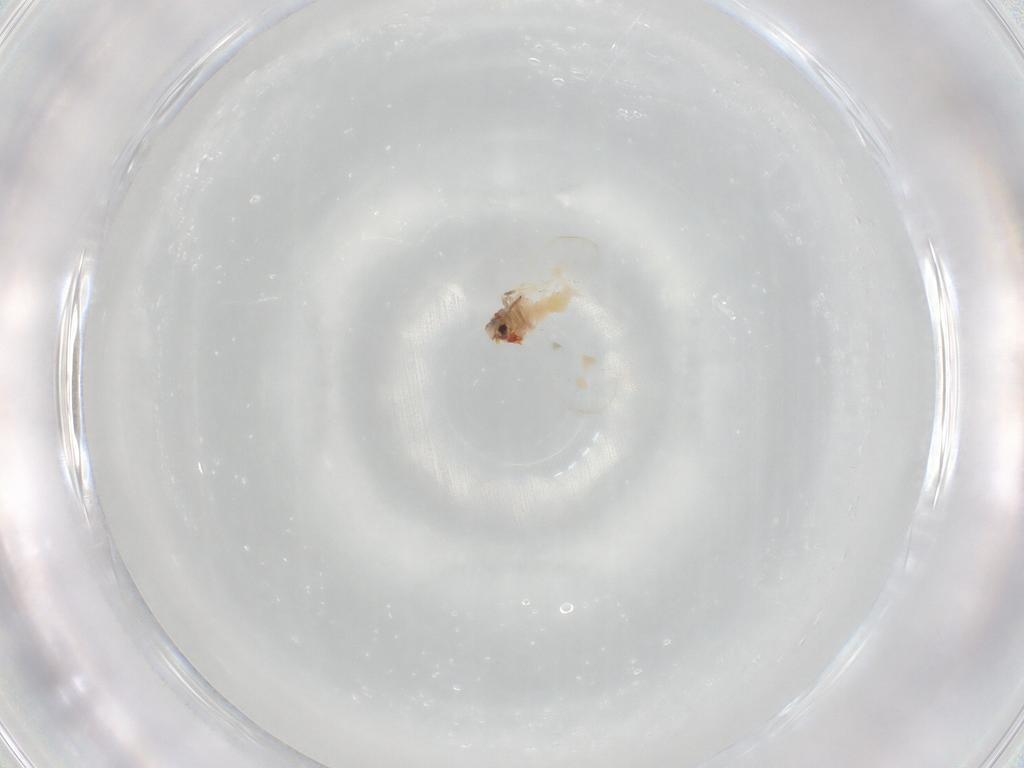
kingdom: Animalia
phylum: Arthropoda
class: Insecta
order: Hemiptera
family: Aleyrodidae
